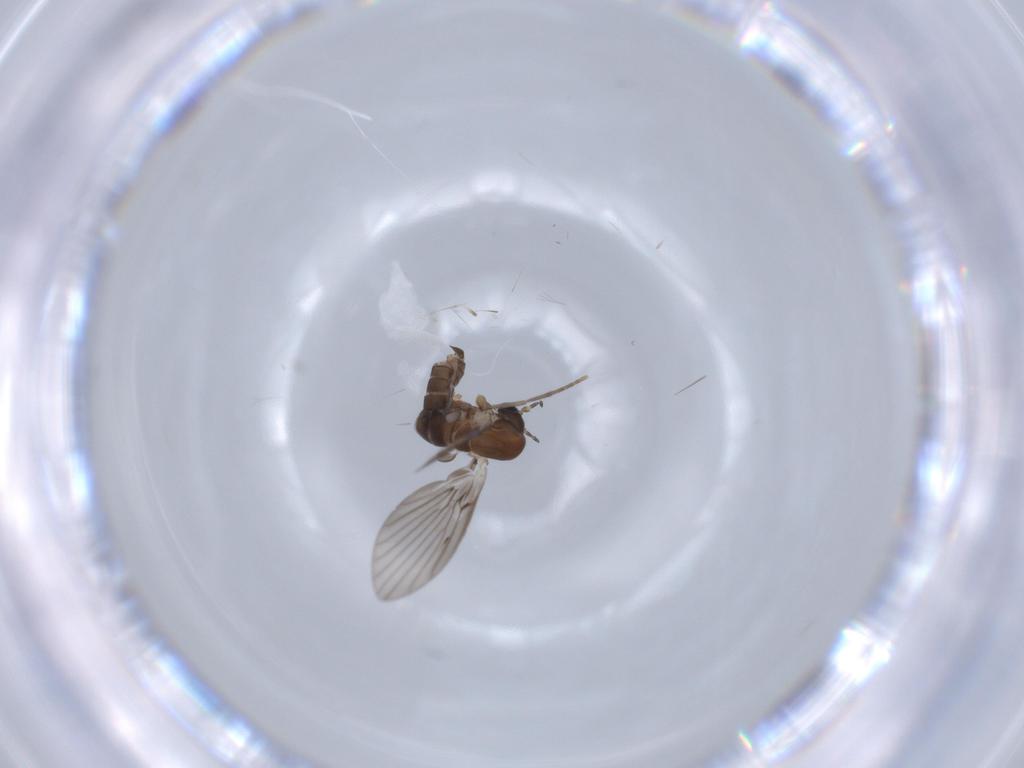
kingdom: Animalia
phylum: Arthropoda
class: Insecta
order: Diptera
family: Psychodidae
